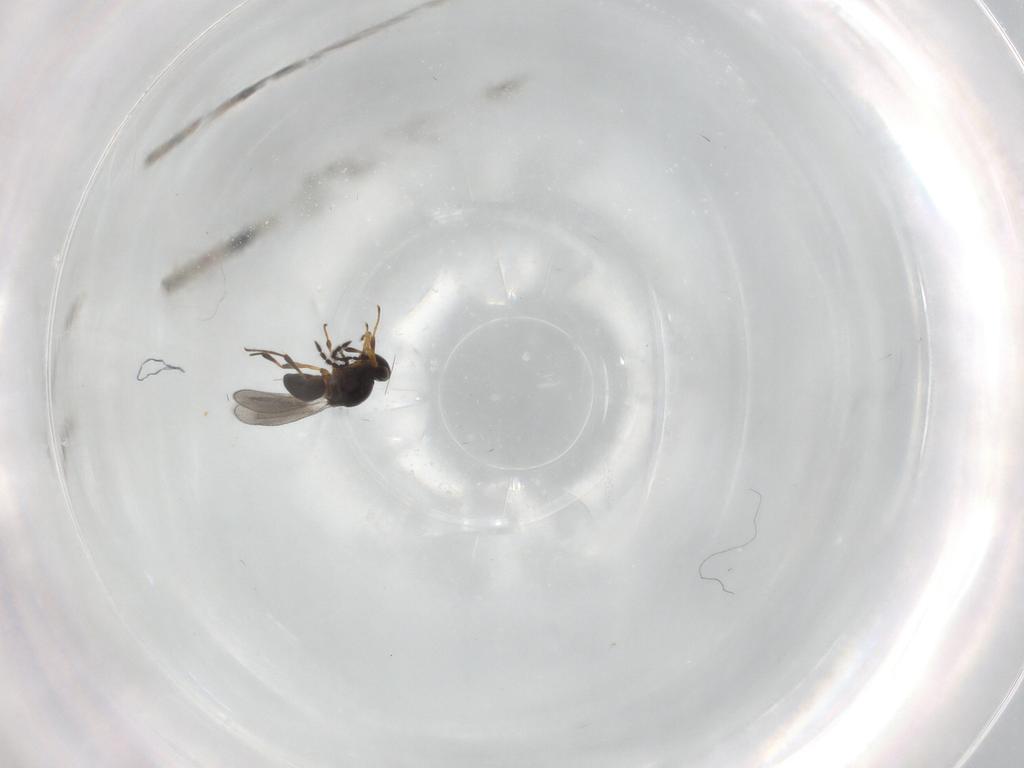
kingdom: Animalia
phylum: Arthropoda
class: Insecta
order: Hymenoptera
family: Platygastridae
